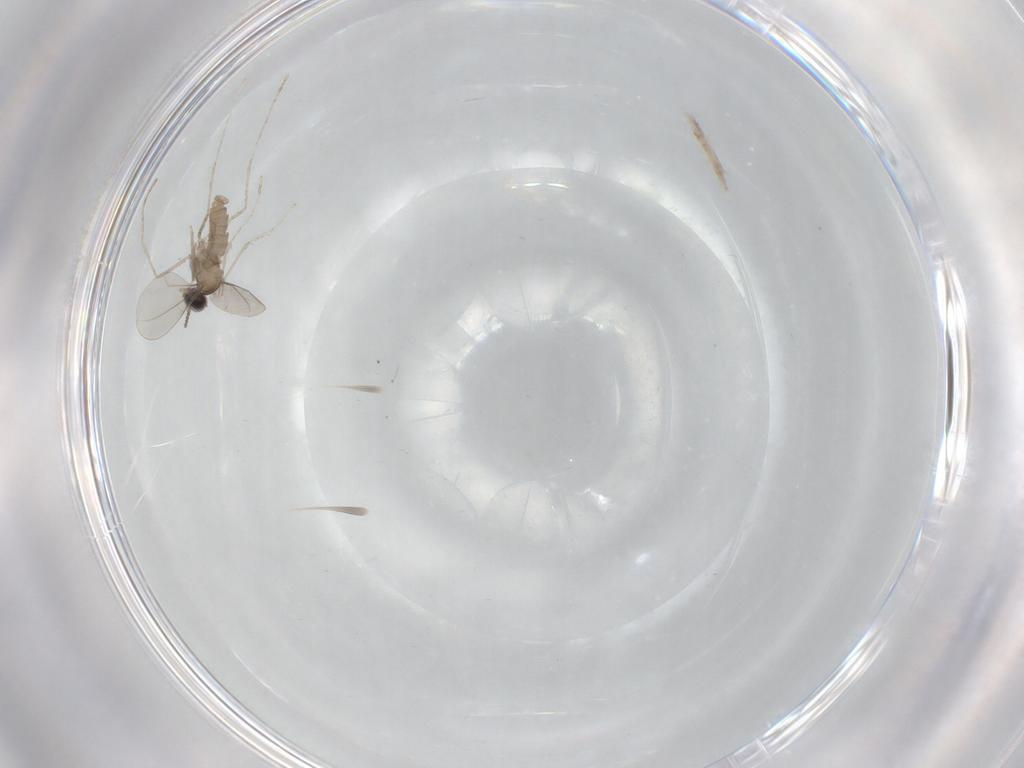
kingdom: Animalia
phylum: Arthropoda
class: Insecta
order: Diptera
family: Cecidomyiidae
